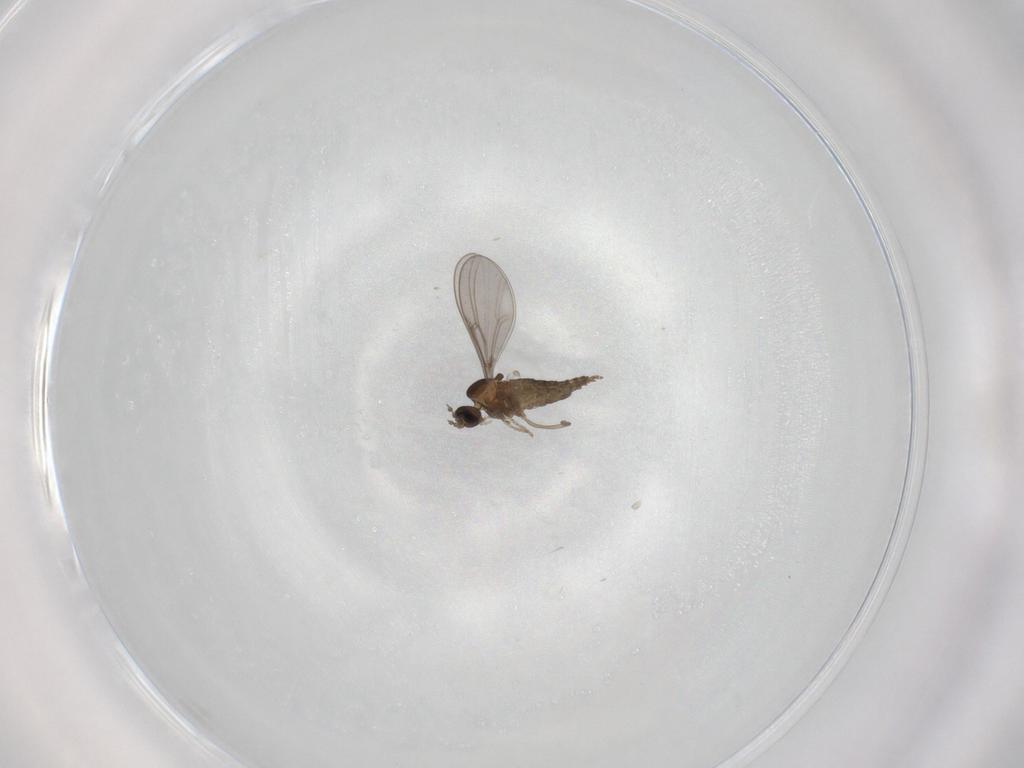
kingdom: Animalia
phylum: Arthropoda
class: Insecta
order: Diptera
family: Cecidomyiidae
